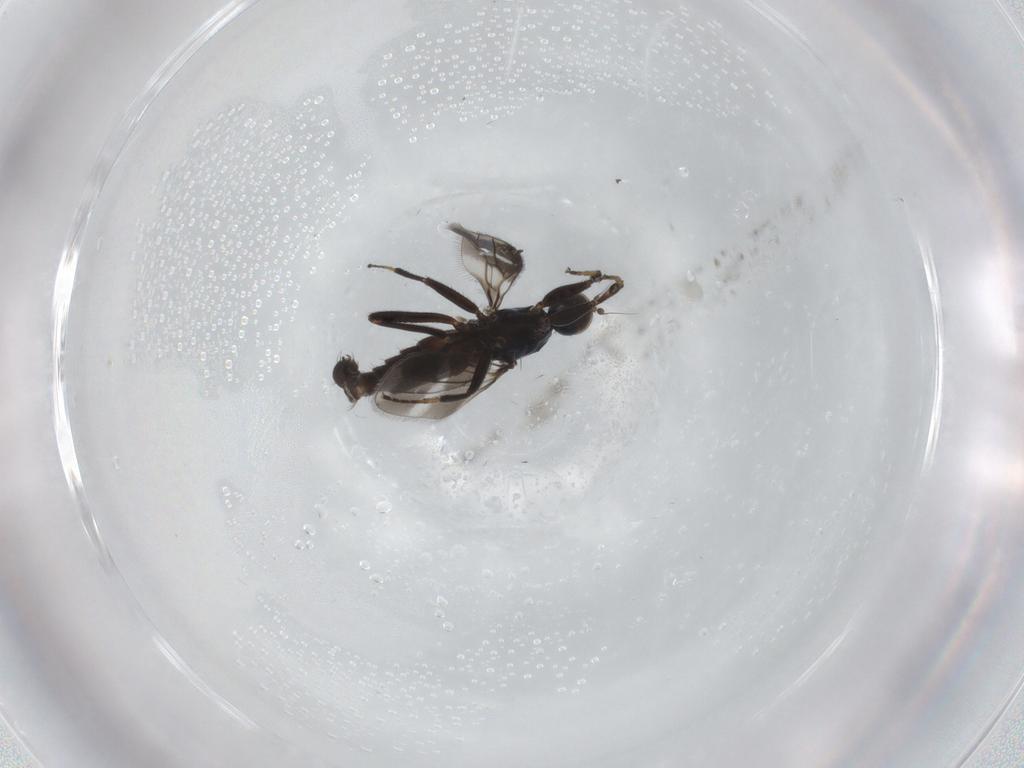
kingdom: Animalia
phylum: Arthropoda
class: Insecta
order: Diptera
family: Hybotidae
